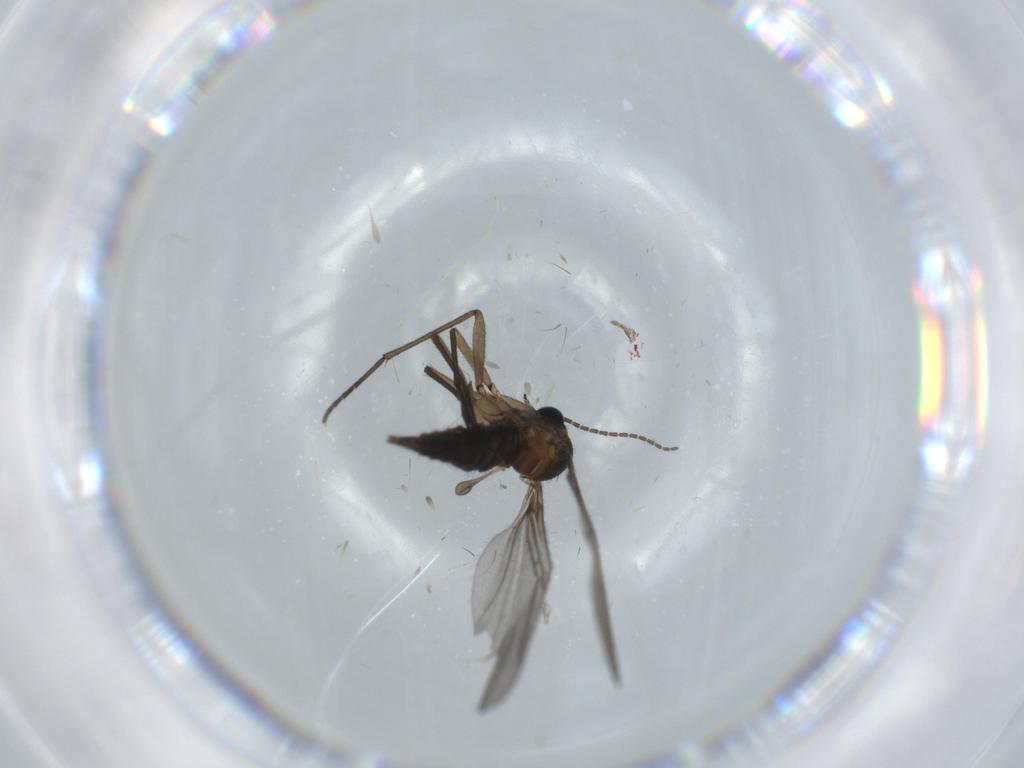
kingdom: Animalia
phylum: Arthropoda
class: Insecta
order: Diptera
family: Cecidomyiidae
